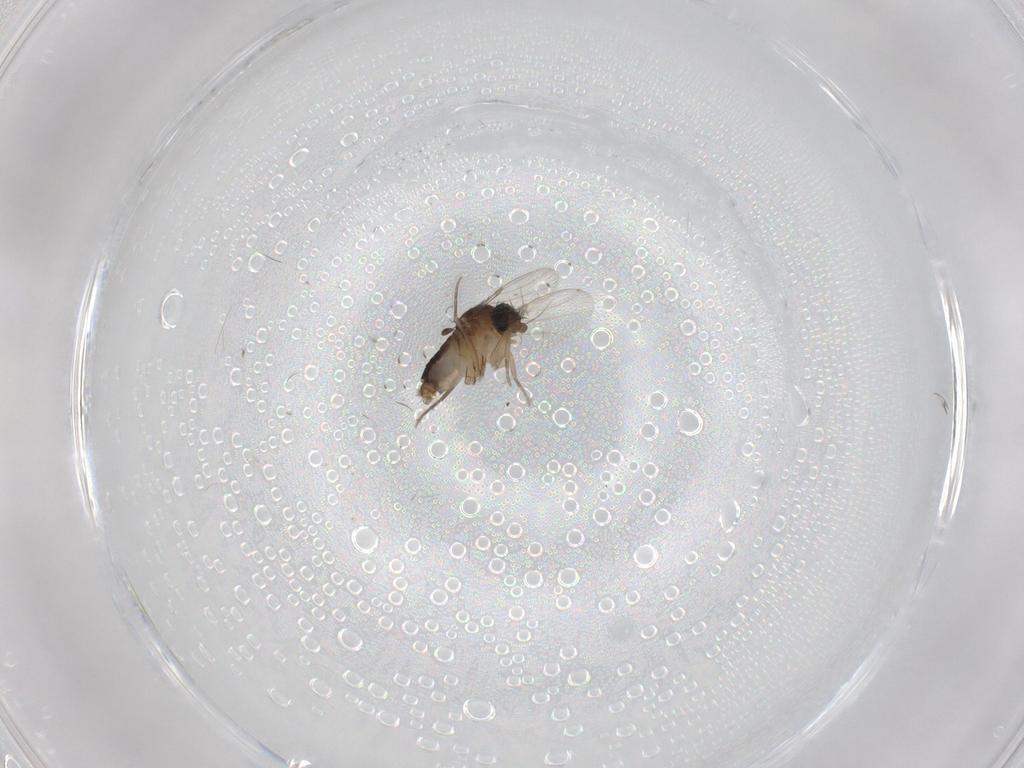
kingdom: Animalia
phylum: Arthropoda
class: Insecta
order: Diptera
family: Phoridae
